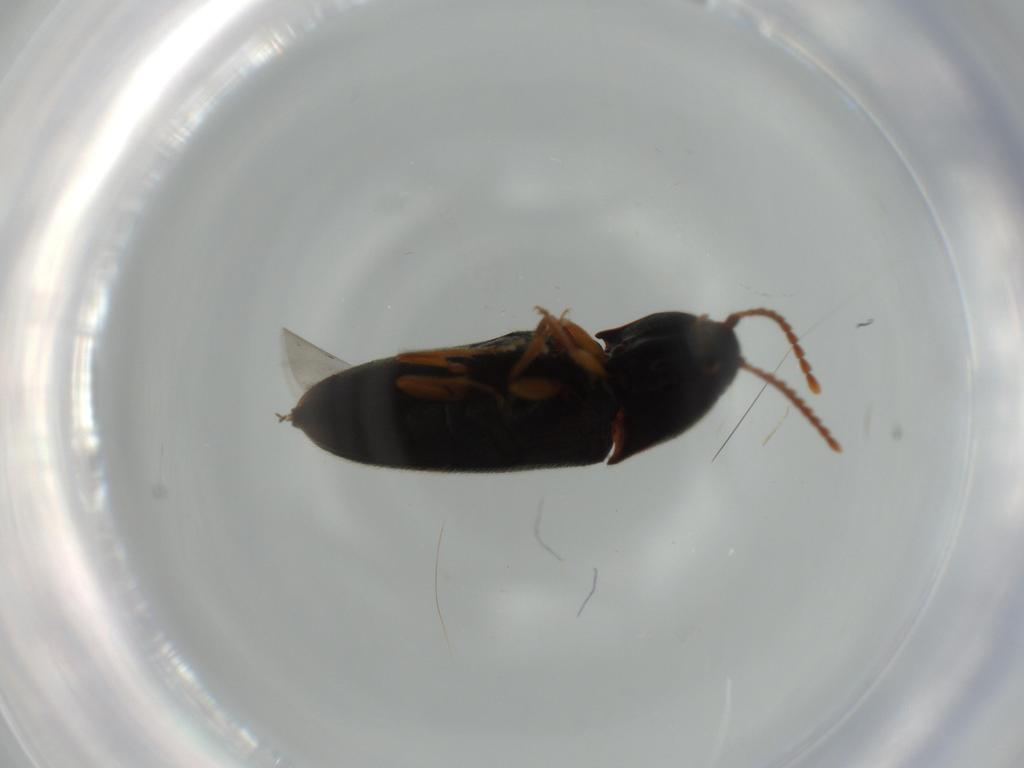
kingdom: Animalia
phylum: Arthropoda
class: Insecta
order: Coleoptera
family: Elateridae
